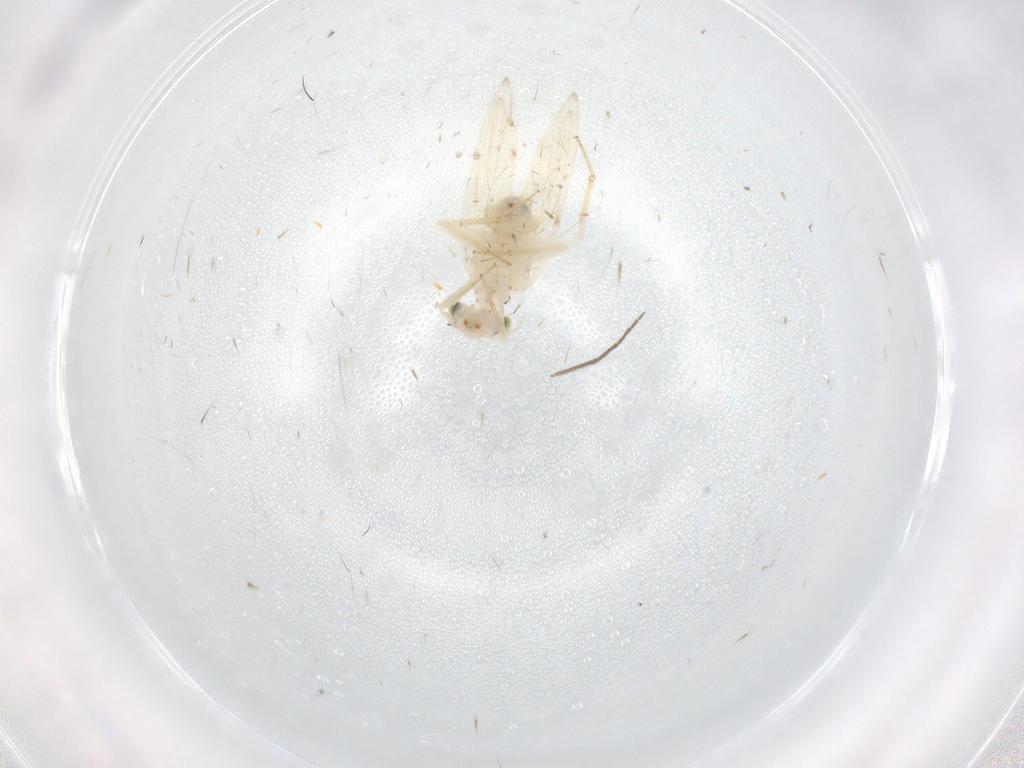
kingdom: Animalia
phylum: Arthropoda
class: Insecta
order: Psocodea
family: Lepidopsocidae
